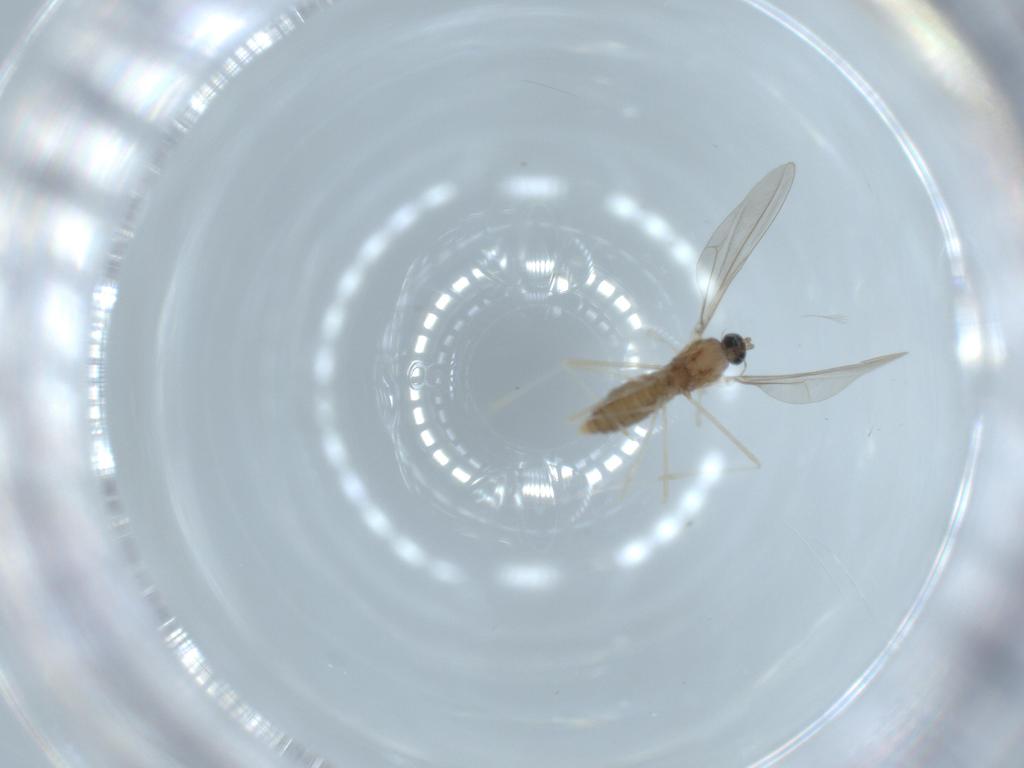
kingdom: Animalia
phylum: Arthropoda
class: Insecta
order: Diptera
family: Cecidomyiidae
